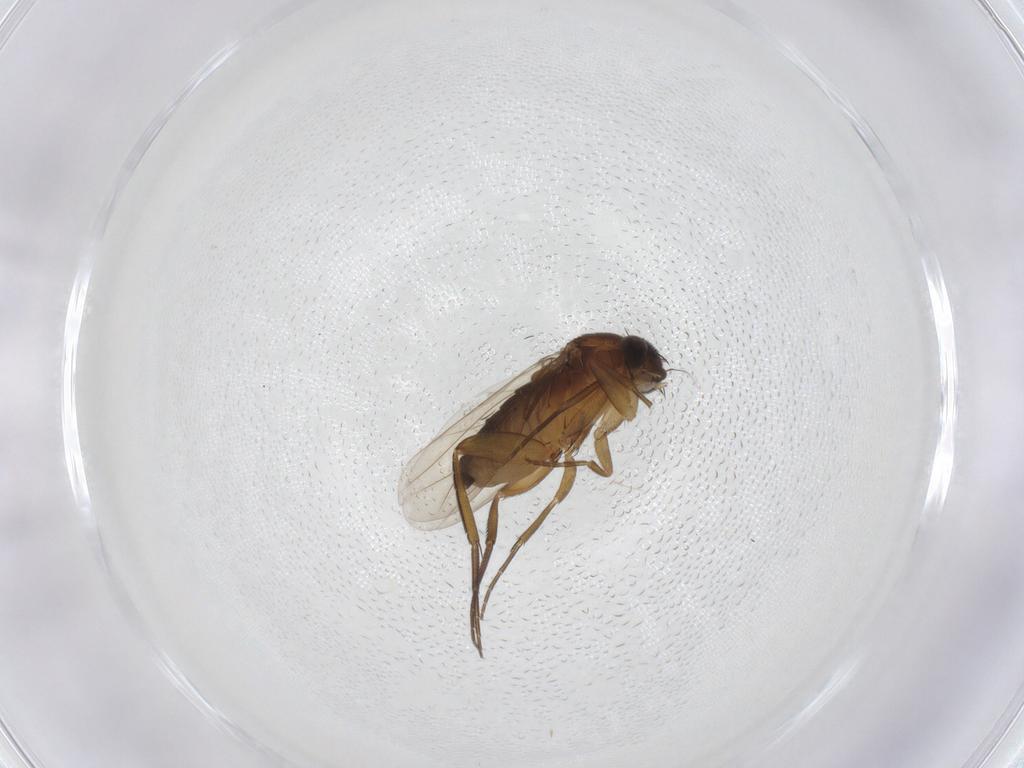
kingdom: Animalia
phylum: Arthropoda
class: Insecta
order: Diptera
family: Phoridae
